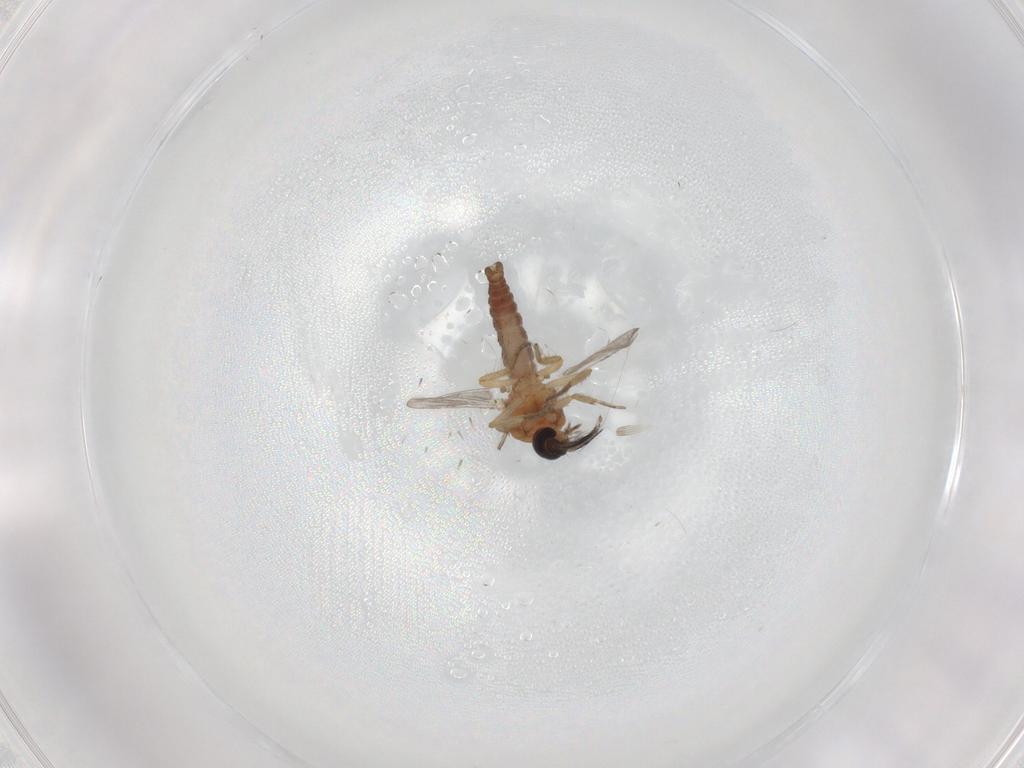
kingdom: Animalia
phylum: Arthropoda
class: Insecta
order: Diptera
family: Ceratopogonidae
